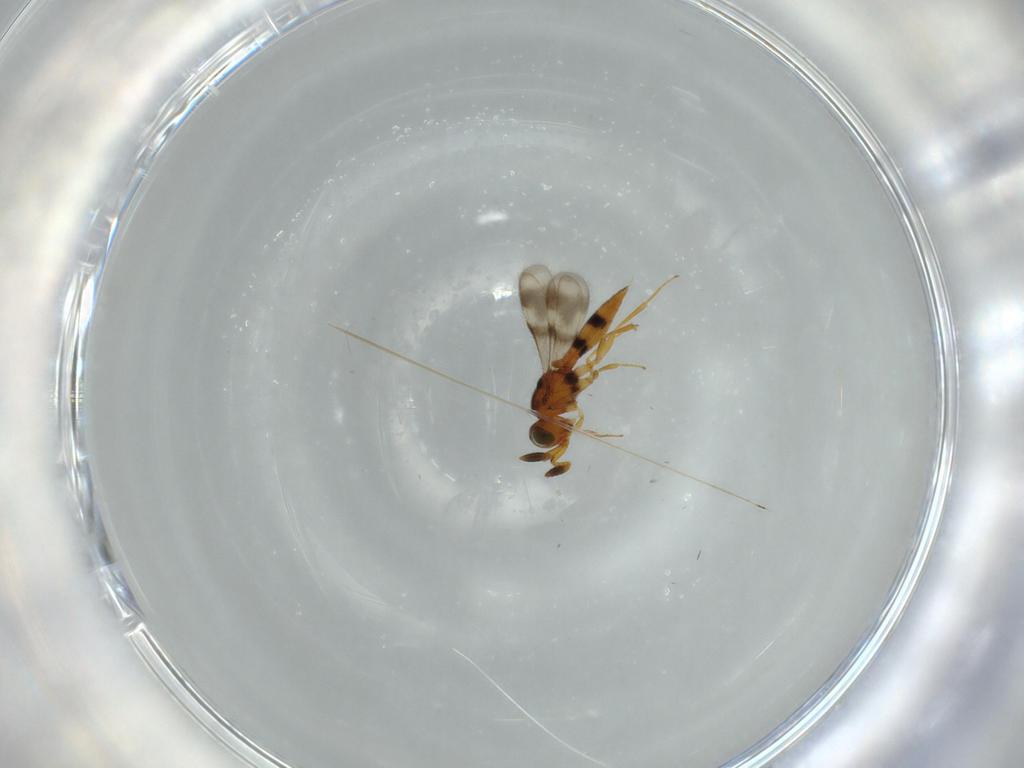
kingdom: Animalia
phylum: Arthropoda
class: Insecta
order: Hymenoptera
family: Scelionidae
